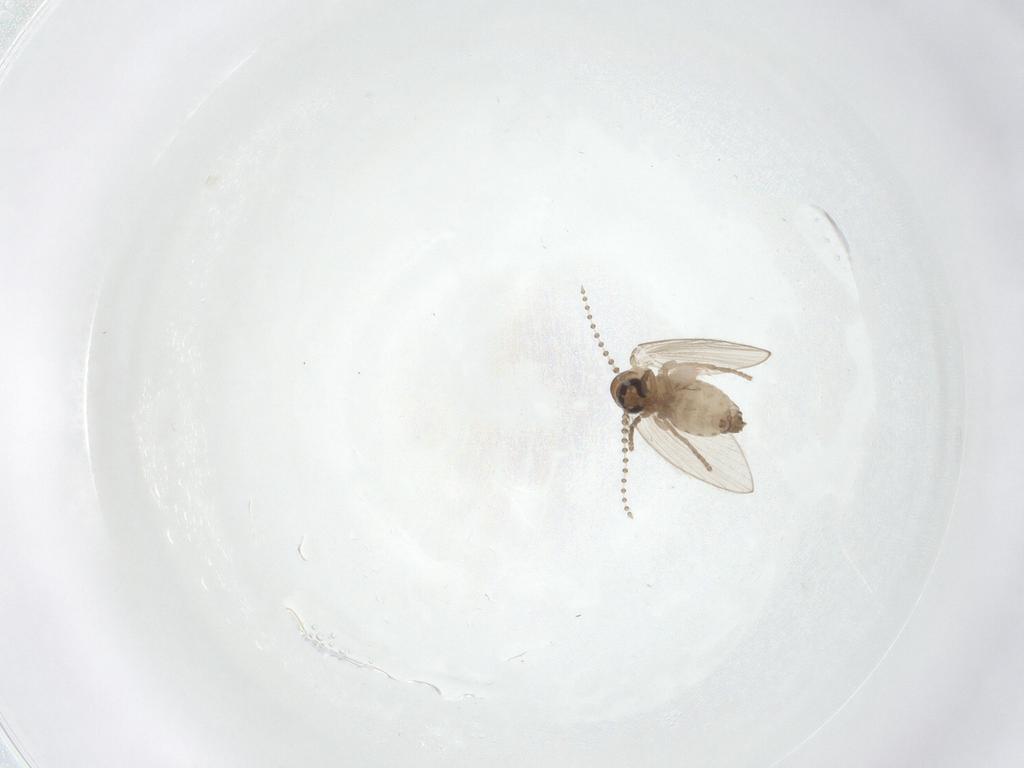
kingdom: Animalia
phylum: Arthropoda
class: Insecta
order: Diptera
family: Psychodidae
